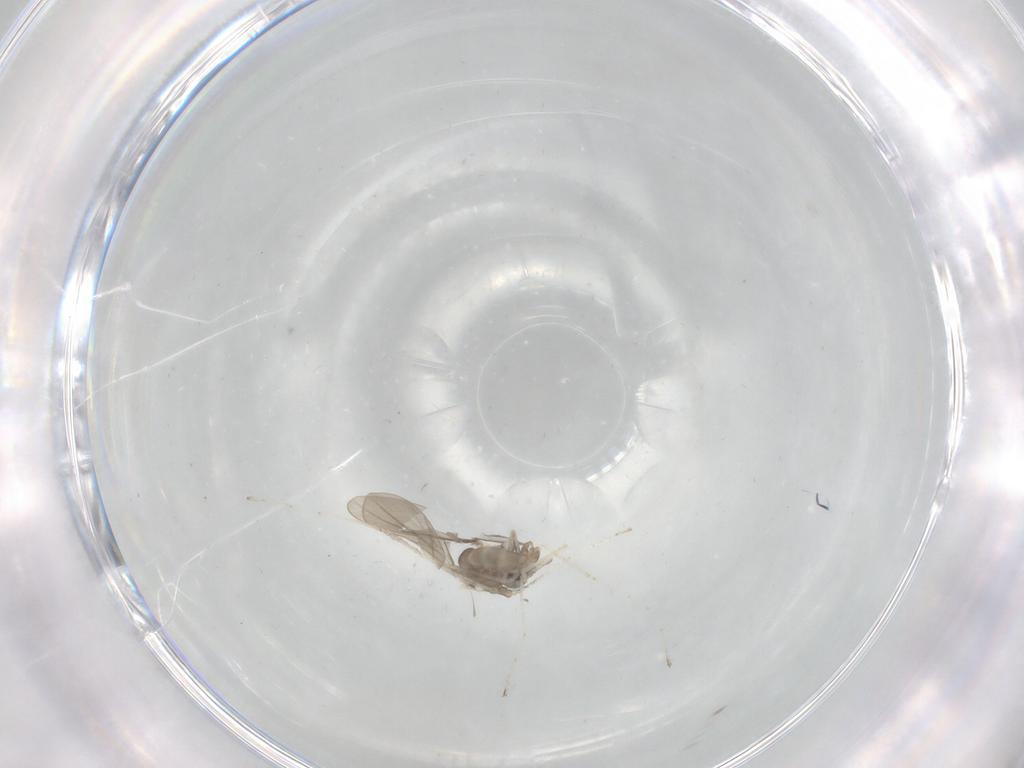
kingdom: Animalia
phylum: Arthropoda
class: Insecta
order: Diptera
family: Cecidomyiidae
